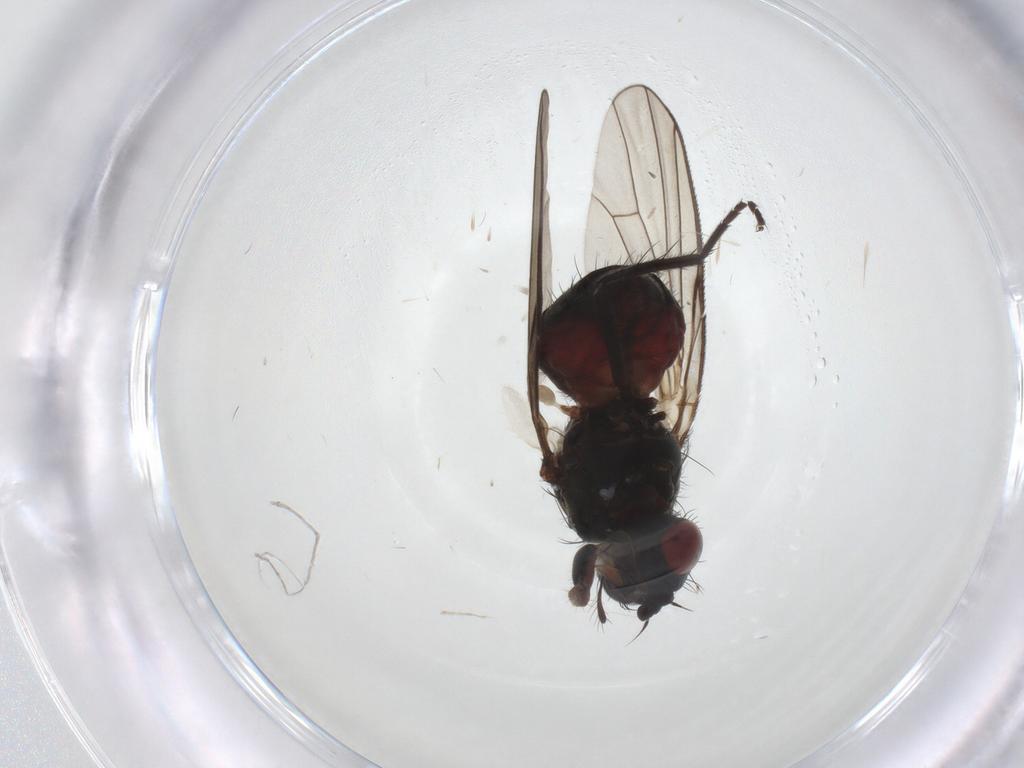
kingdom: Animalia
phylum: Arthropoda
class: Insecta
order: Diptera
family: Anthomyiidae
